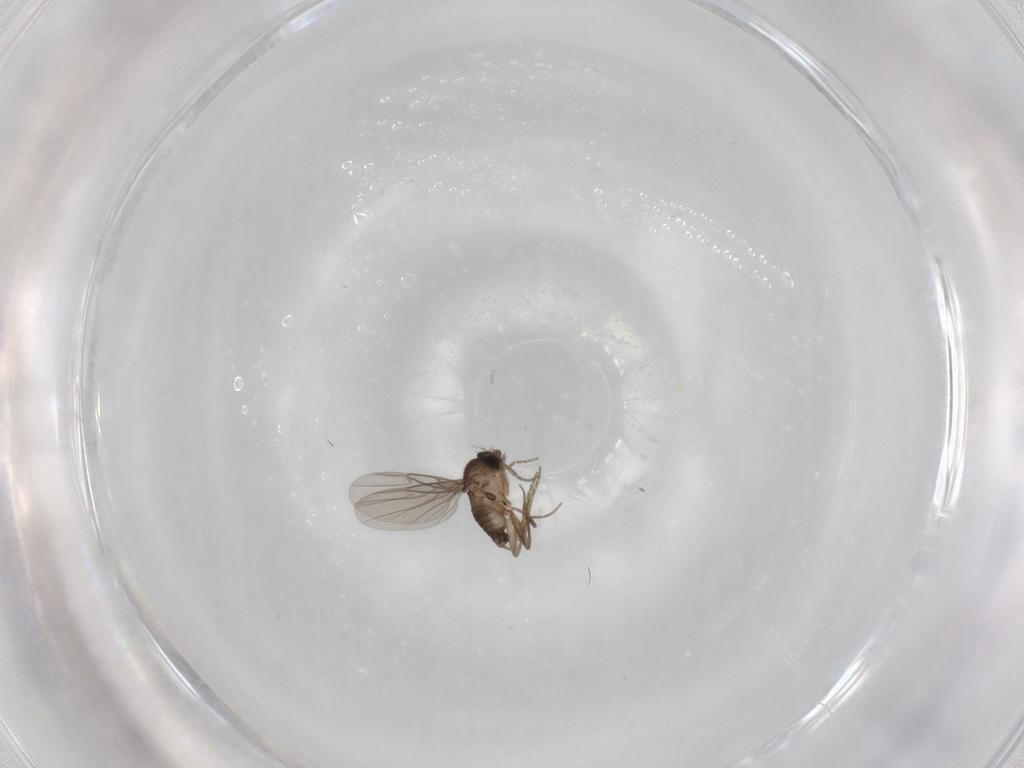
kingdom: Animalia
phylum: Arthropoda
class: Insecta
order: Diptera
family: Phoridae
